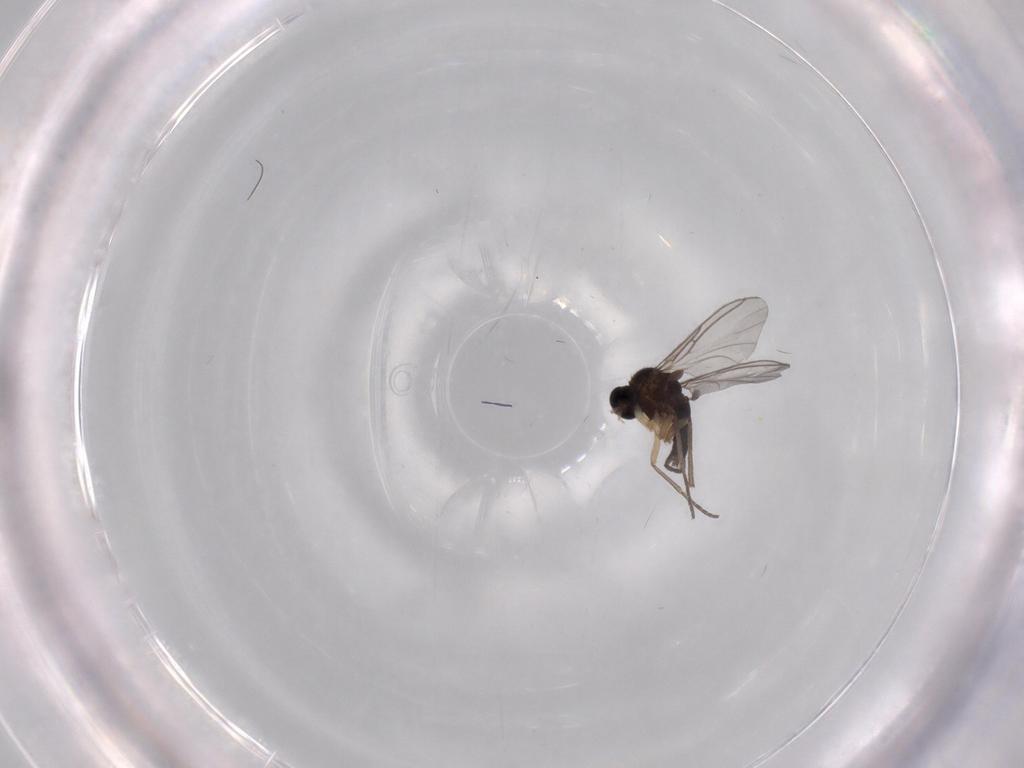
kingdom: Animalia
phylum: Arthropoda
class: Insecta
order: Diptera
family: Sciaridae
